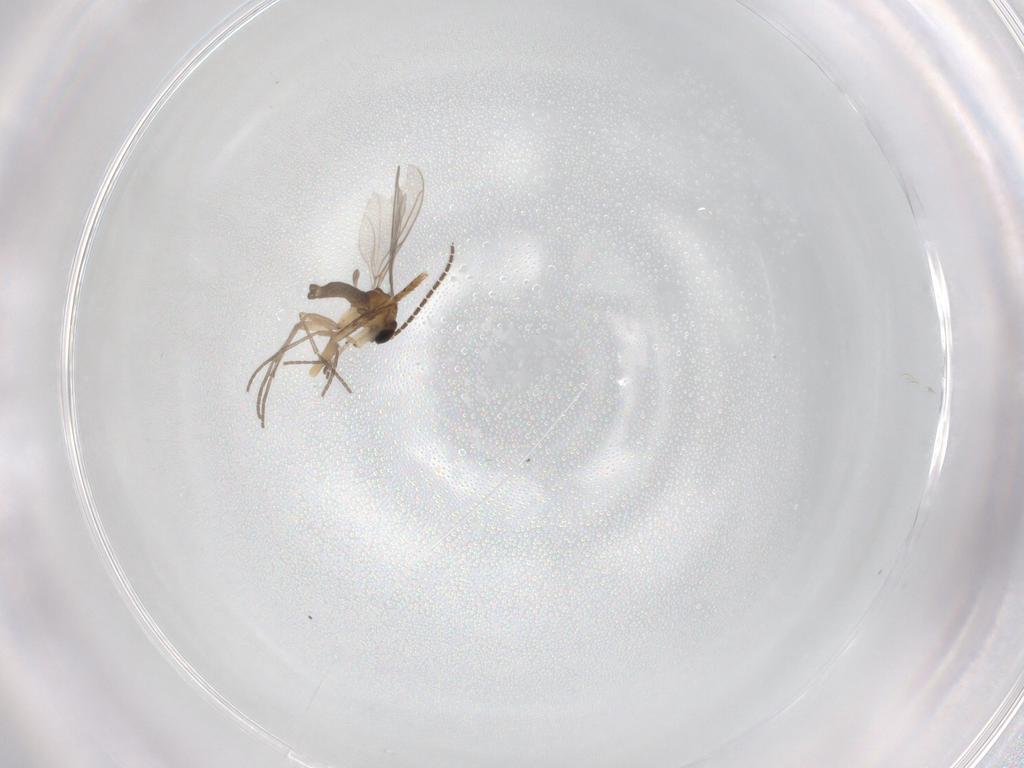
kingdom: Animalia
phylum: Arthropoda
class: Insecta
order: Diptera
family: Sciaridae
